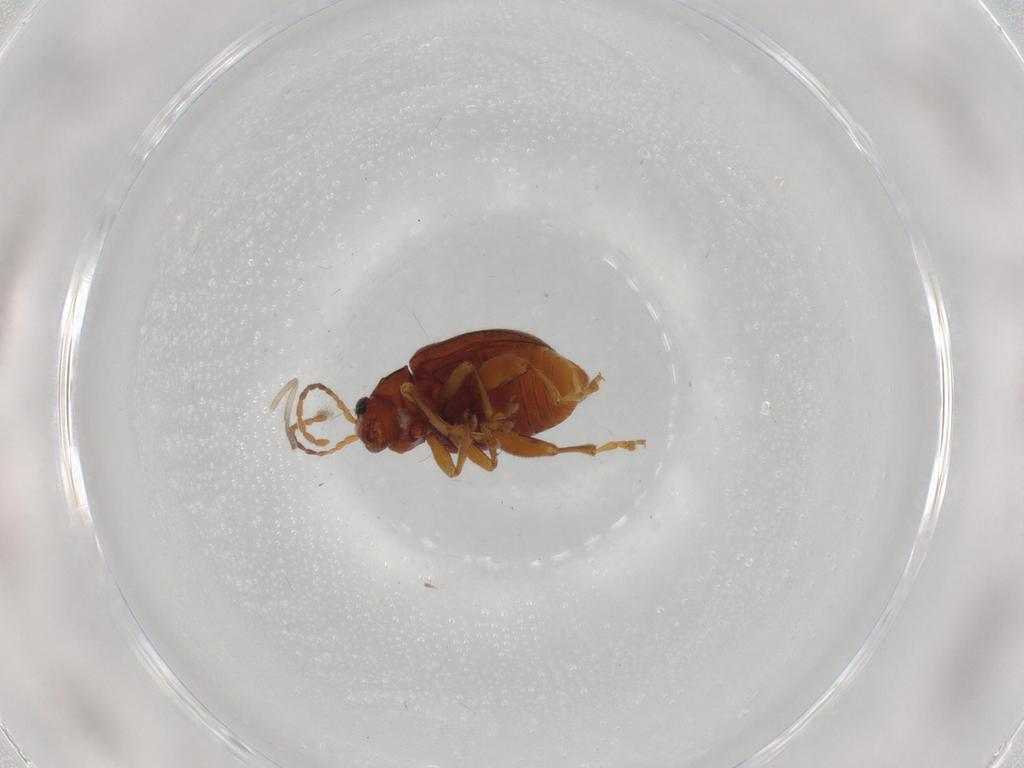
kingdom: Animalia
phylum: Arthropoda
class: Insecta
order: Coleoptera
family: Chrysomelidae
